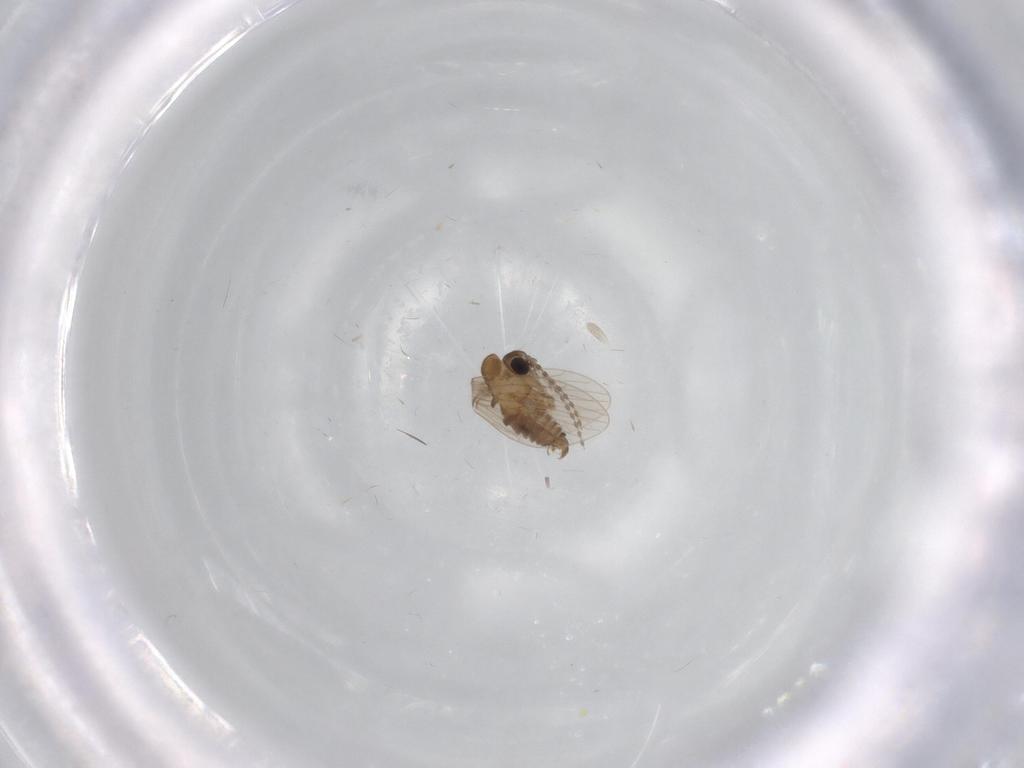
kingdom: Animalia
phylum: Arthropoda
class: Insecta
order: Diptera
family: Psychodidae
